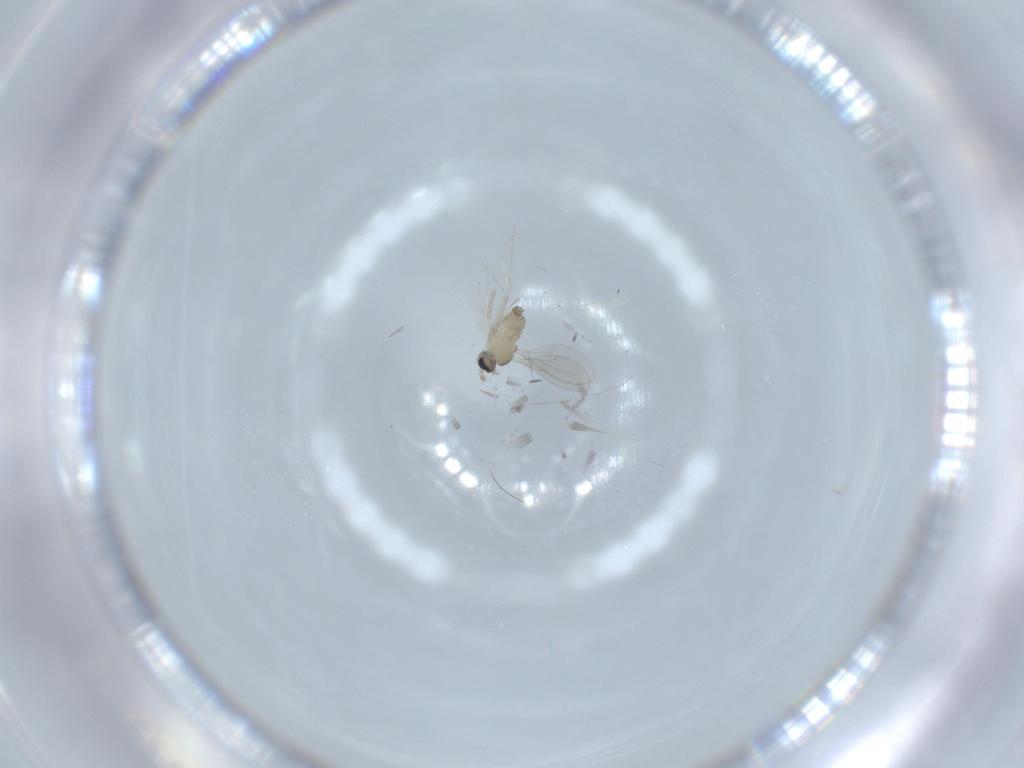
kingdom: Animalia
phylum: Arthropoda
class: Insecta
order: Diptera
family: Cecidomyiidae
